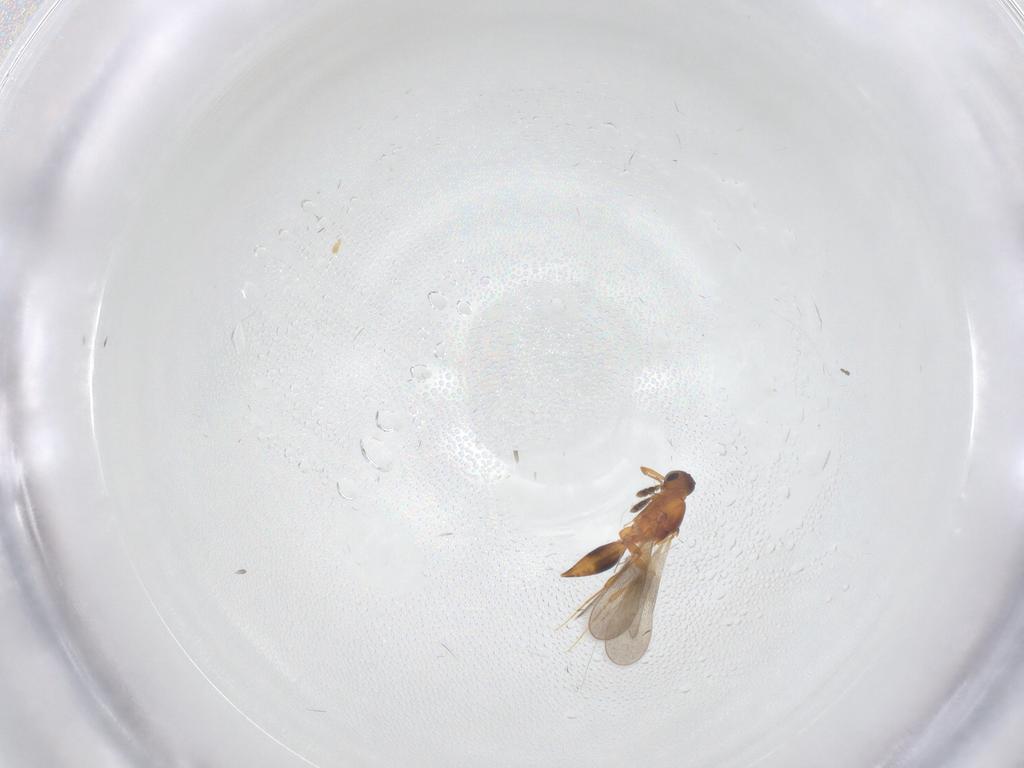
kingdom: Animalia
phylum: Arthropoda
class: Insecta
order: Hymenoptera
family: Platygastridae
